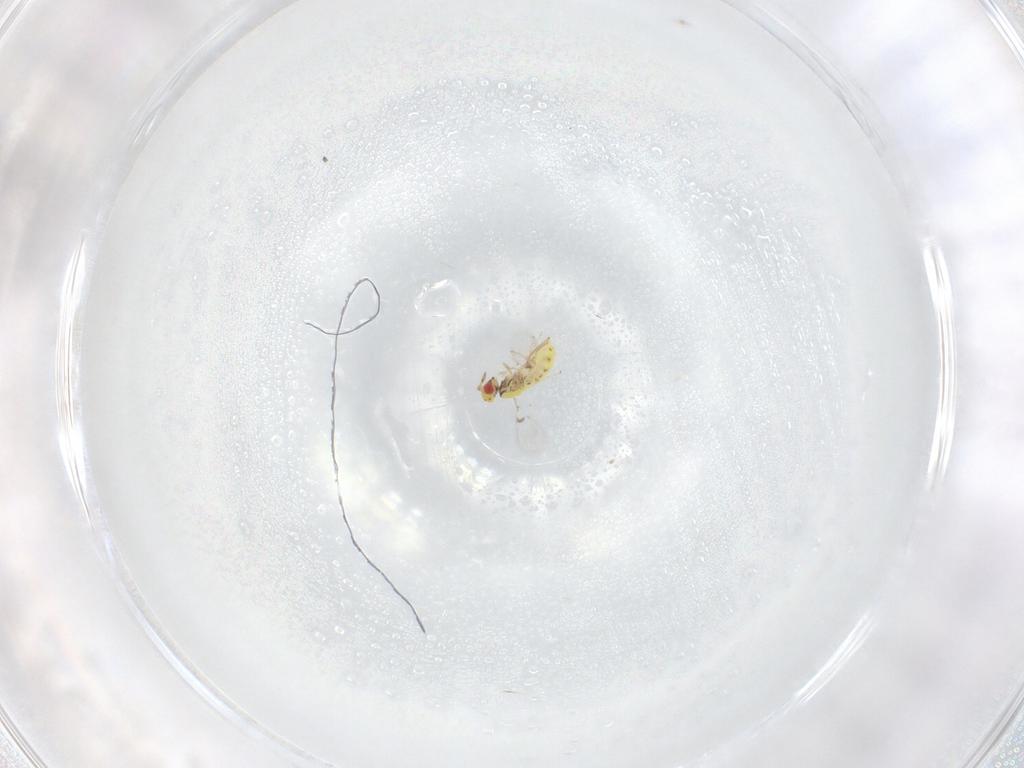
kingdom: Animalia
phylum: Arthropoda
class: Insecta
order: Hymenoptera
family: Trichogrammatidae
